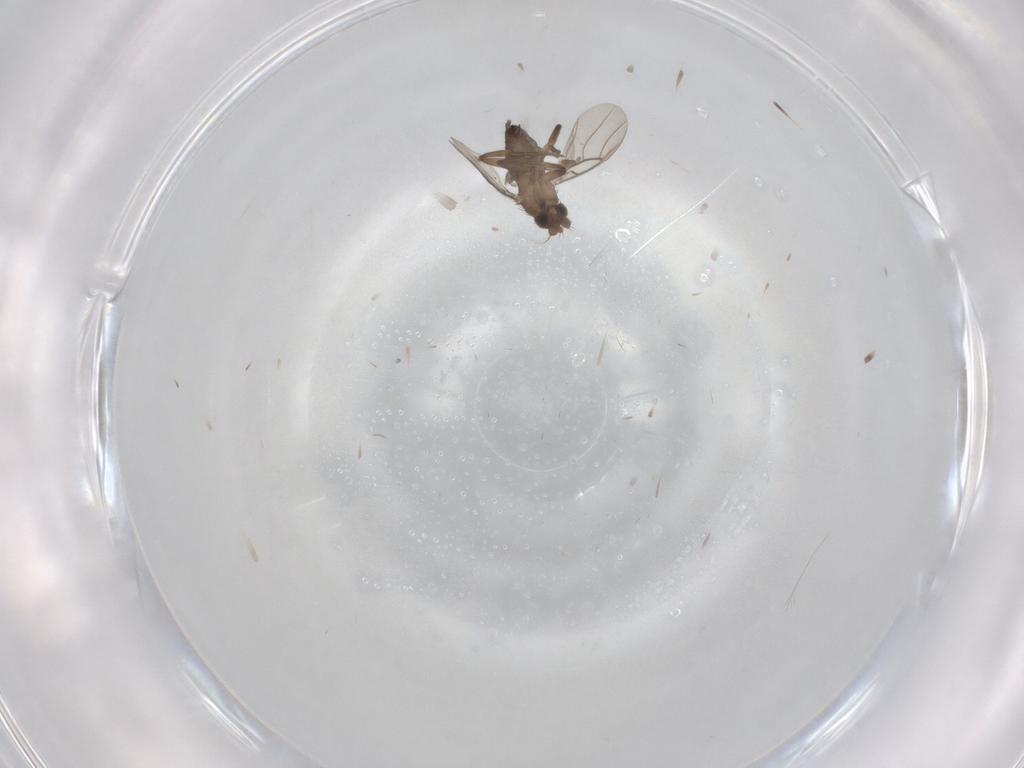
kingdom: Animalia
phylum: Arthropoda
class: Insecta
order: Diptera
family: Phoridae
